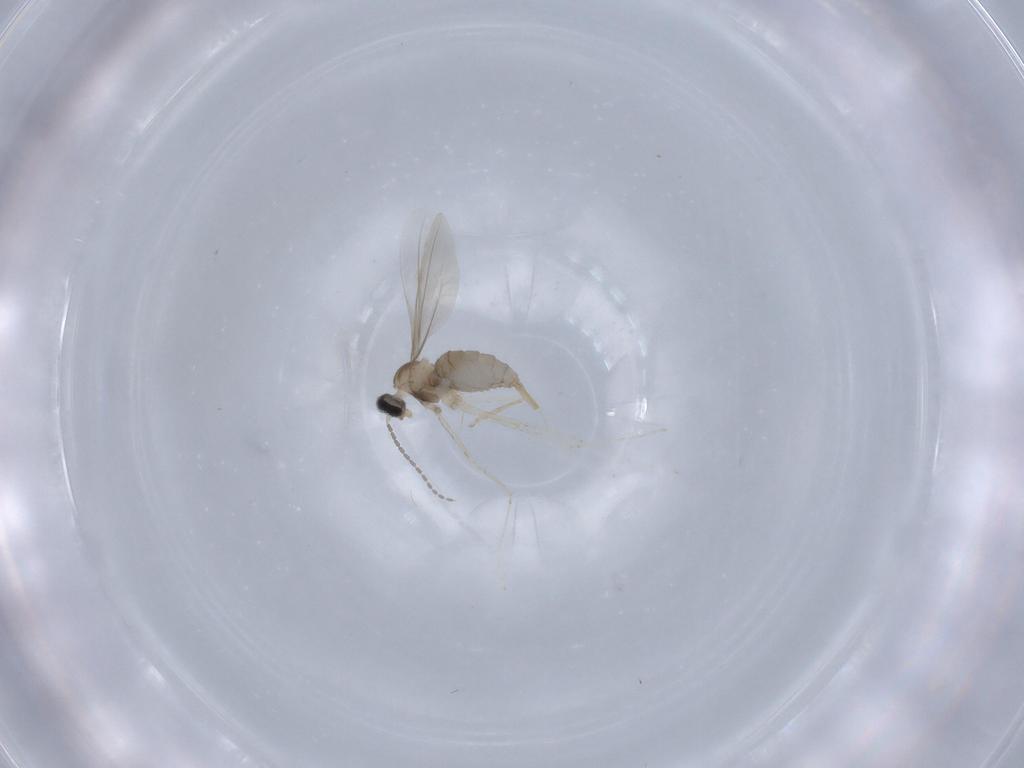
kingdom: Animalia
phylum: Arthropoda
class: Insecta
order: Diptera
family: Cecidomyiidae
